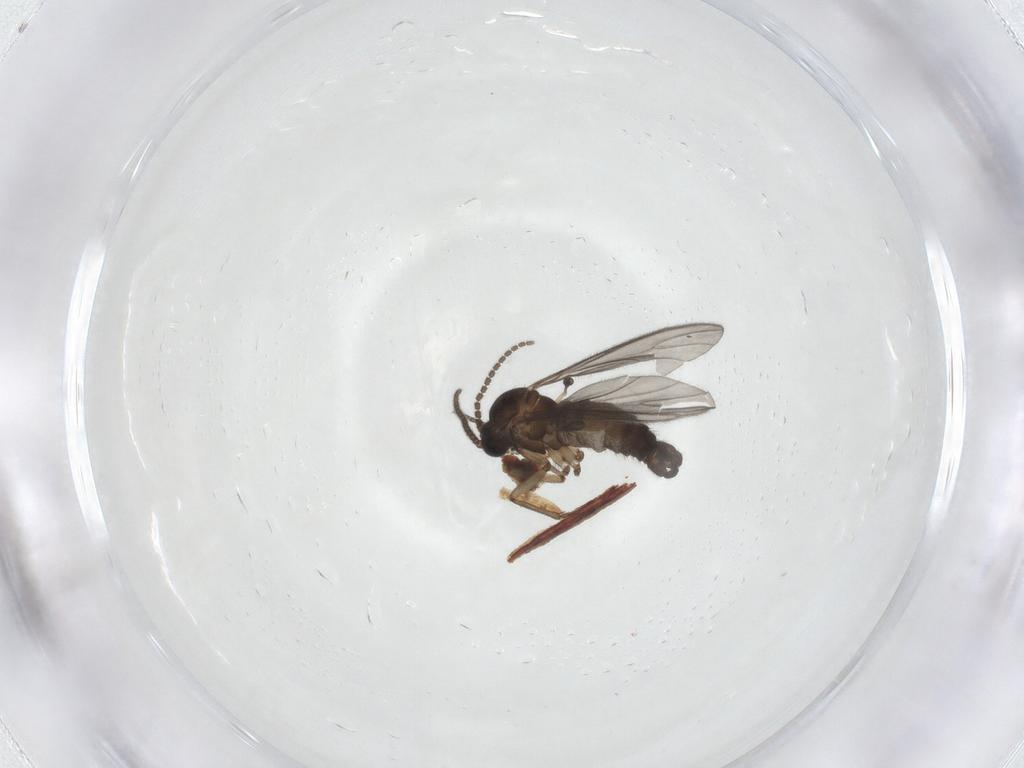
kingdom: Animalia
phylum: Arthropoda
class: Insecta
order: Diptera
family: Sciaridae
